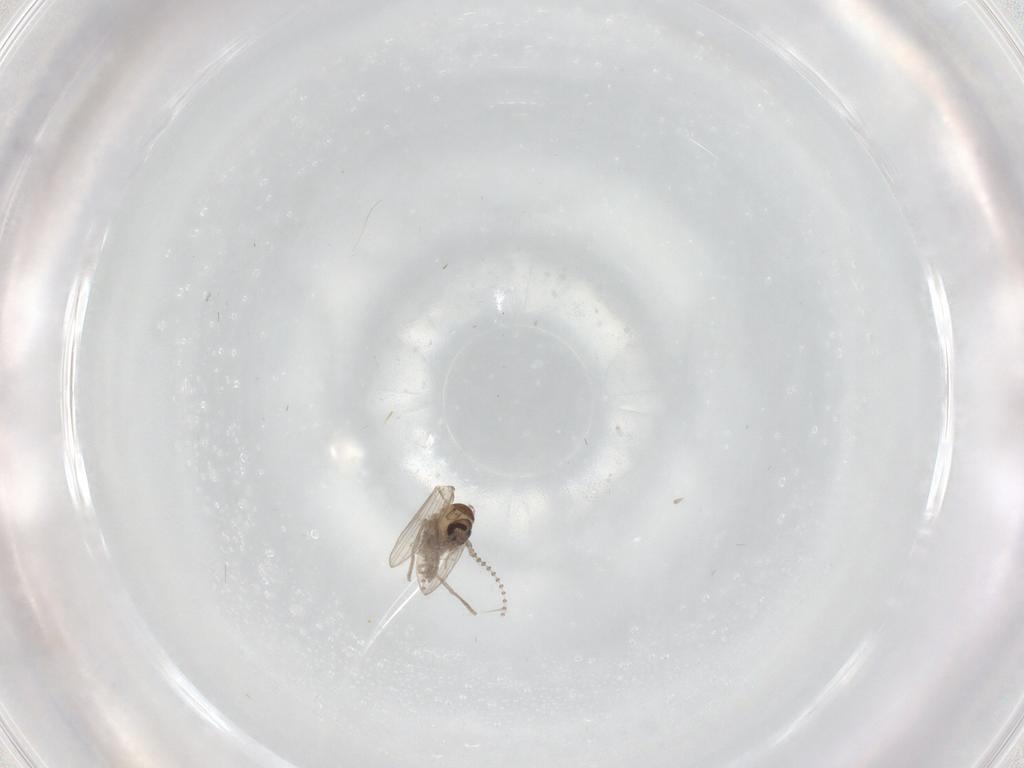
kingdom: Animalia
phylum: Arthropoda
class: Insecta
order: Diptera
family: Psychodidae
